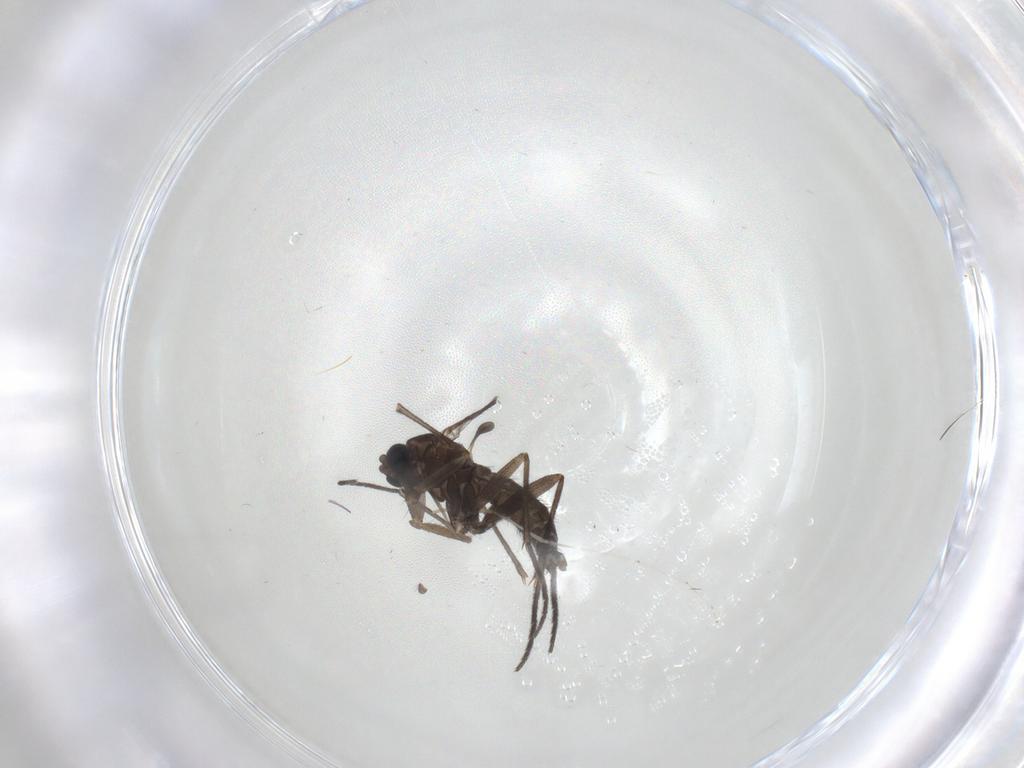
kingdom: Animalia
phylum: Arthropoda
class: Insecta
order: Diptera
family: Sciaridae
